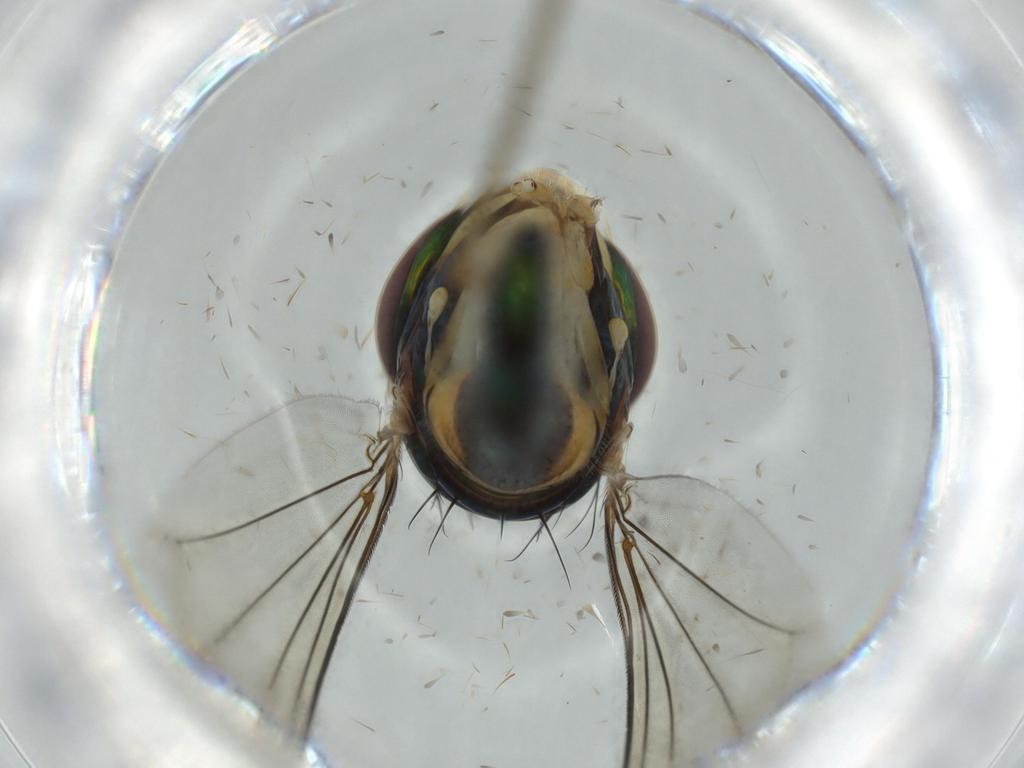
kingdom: Animalia
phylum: Arthropoda
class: Insecta
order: Diptera
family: Dolichopodidae
